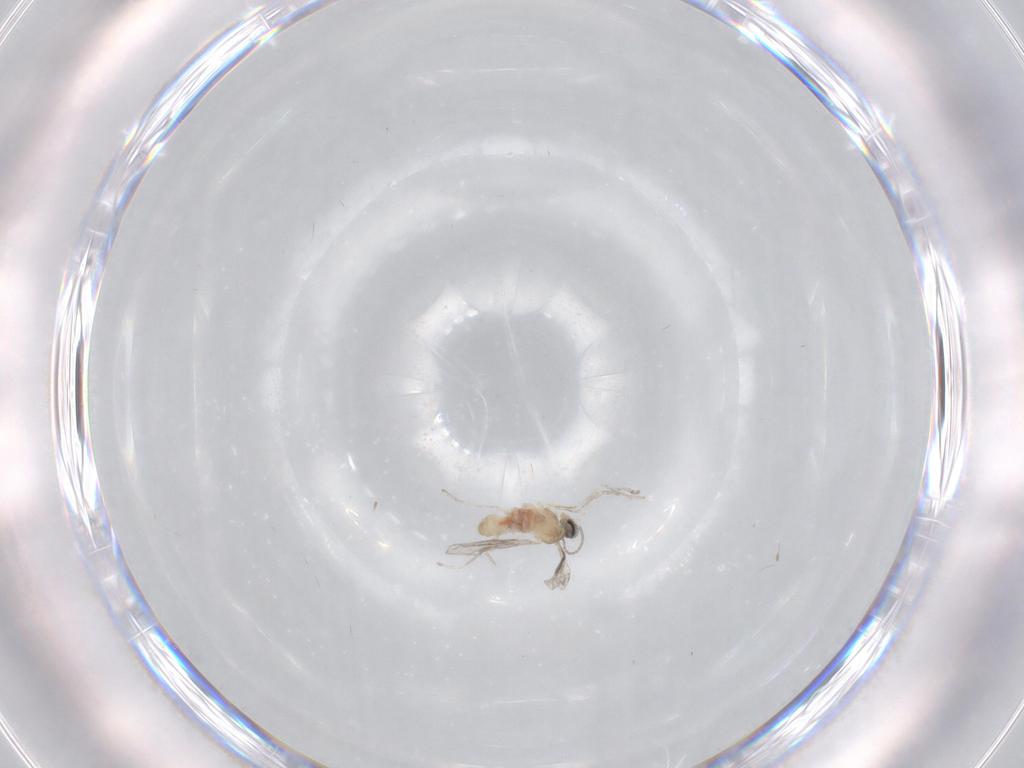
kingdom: Animalia
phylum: Arthropoda
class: Insecta
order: Diptera
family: Cecidomyiidae
